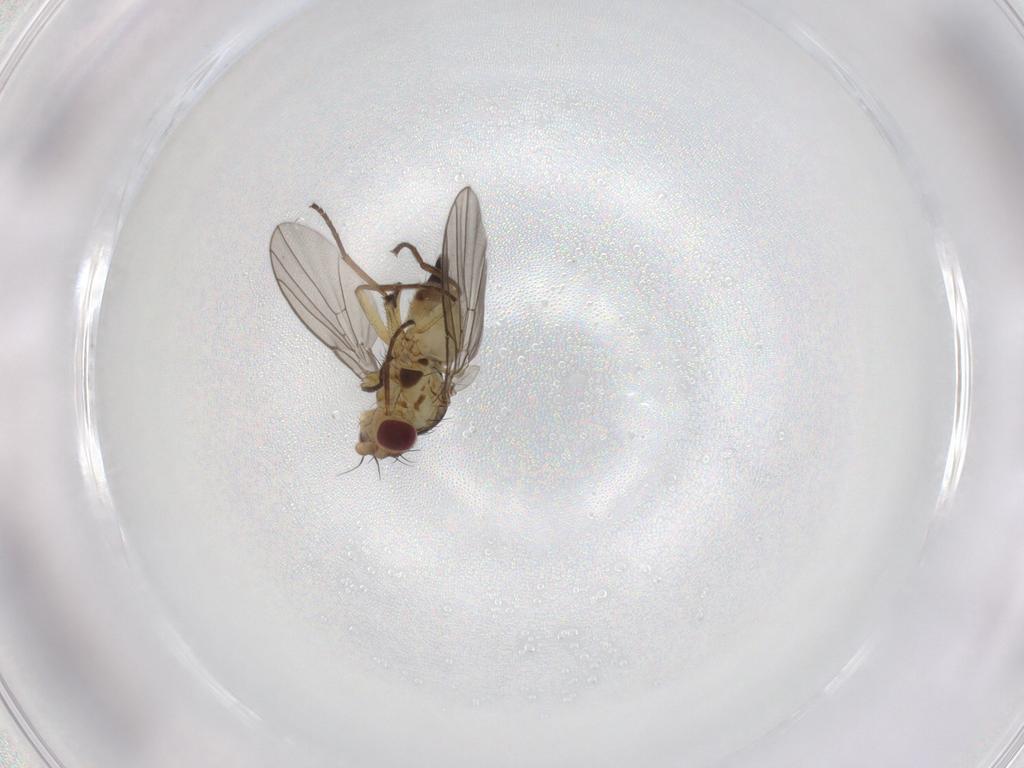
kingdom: Animalia
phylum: Arthropoda
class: Insecta
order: Diptera
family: Agromyzidae
